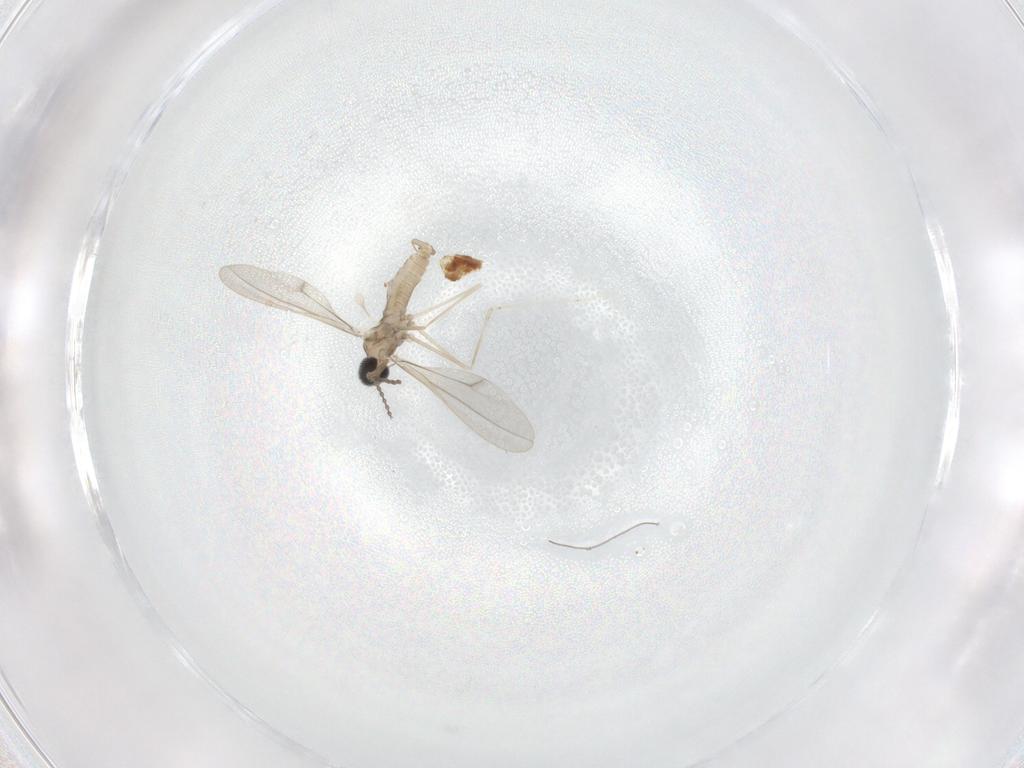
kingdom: Animalia
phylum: Arthropoda
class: Insecta
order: Diptera
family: Cecidomyiidae
